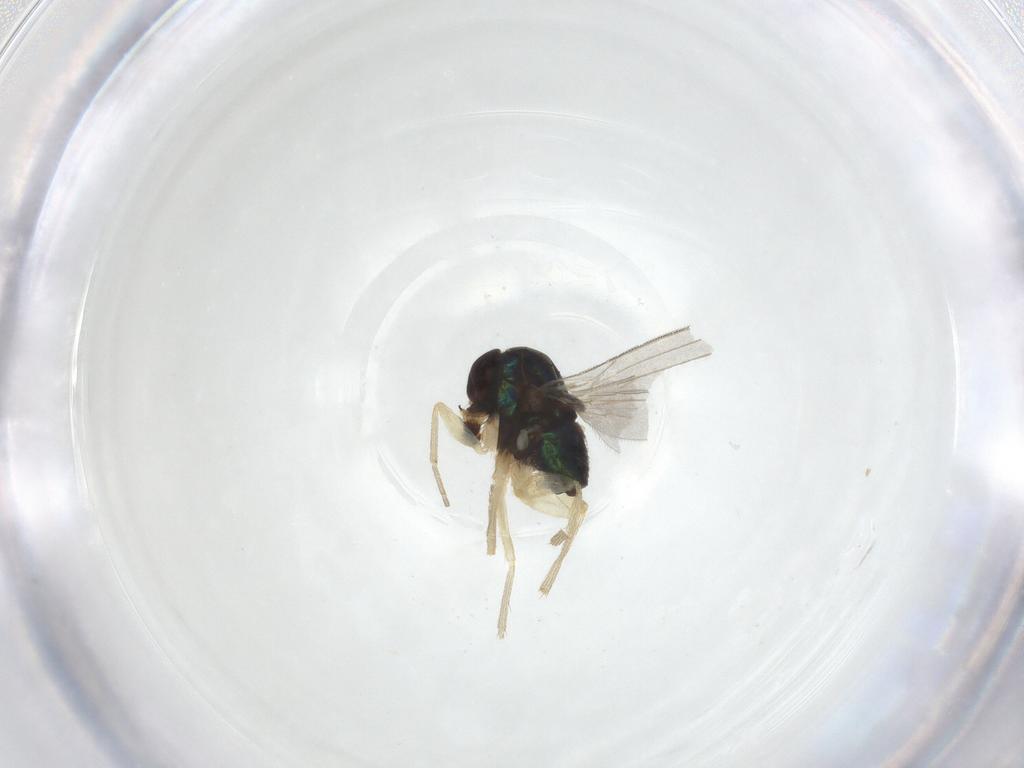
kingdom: Animalia
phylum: Arthropoda
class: Insecta
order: Diptera
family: Dolichopodidae
